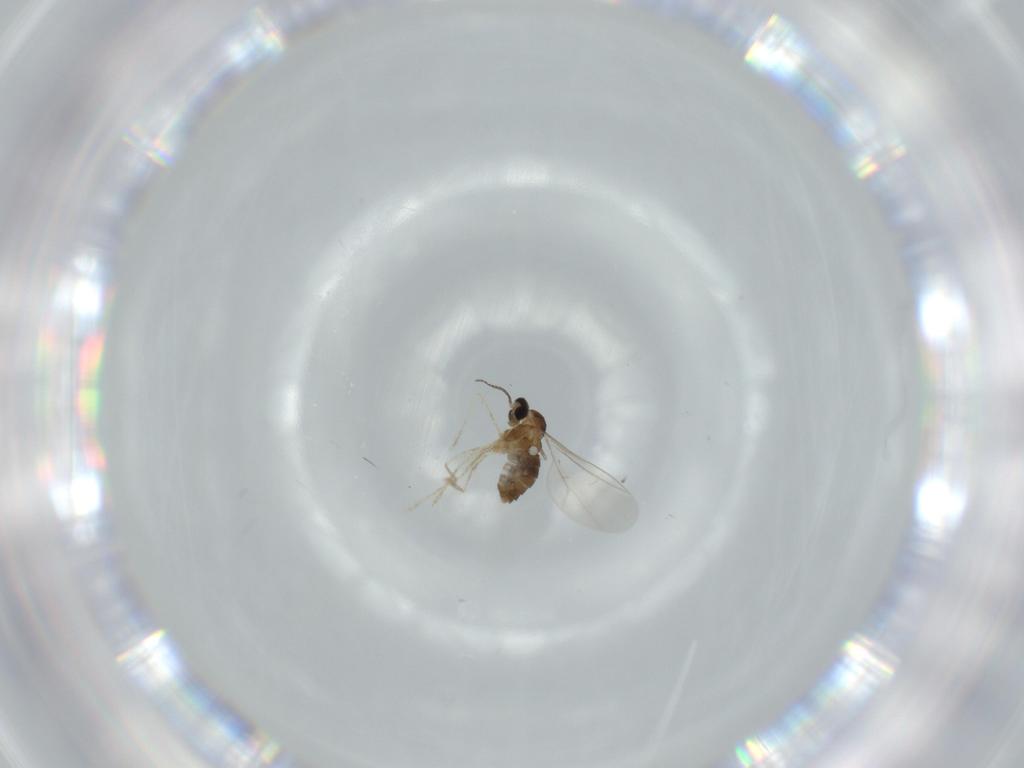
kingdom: Animalia
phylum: Arthropoda
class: Insecta
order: Diptera
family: Cecidomyiidae
